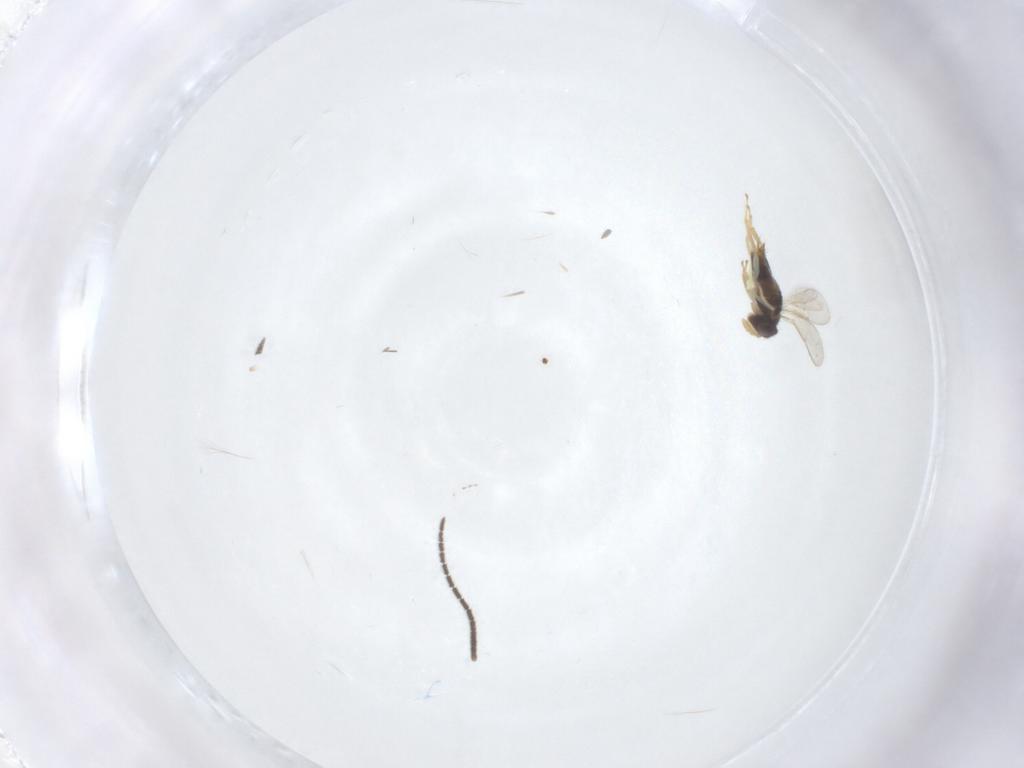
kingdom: Animalia
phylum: Arthropoda
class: Insecta
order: Diptera
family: Sciaridae
